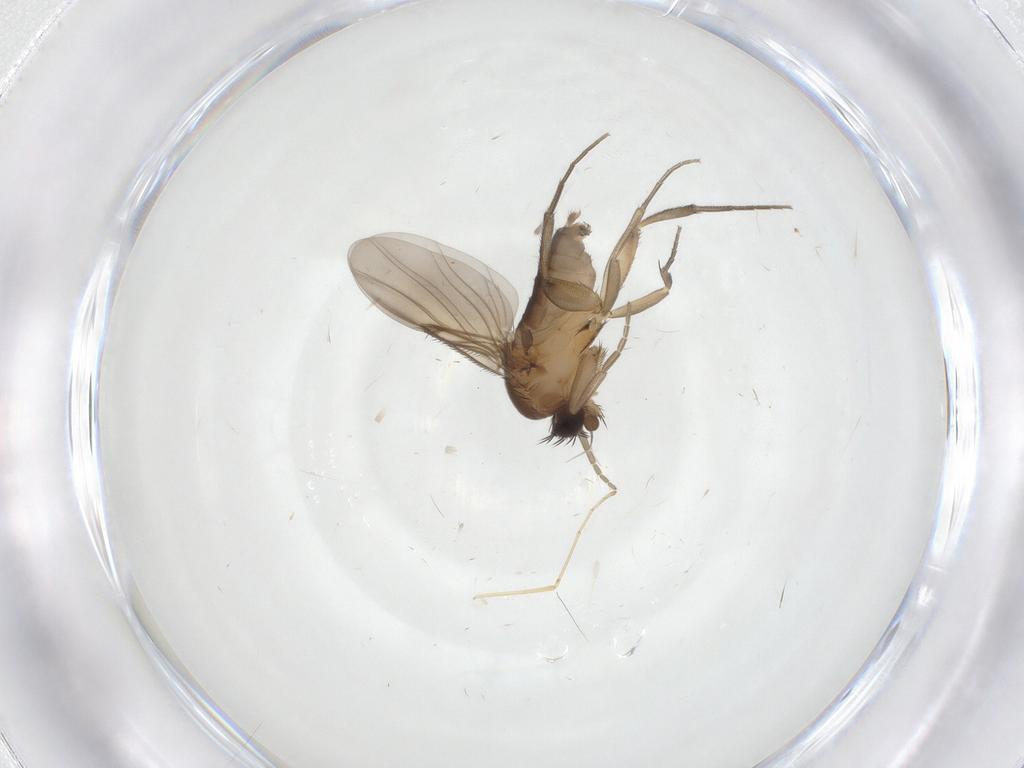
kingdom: Animalia
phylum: Arthropoda
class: Insecta
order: Diptera
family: Phoridae
